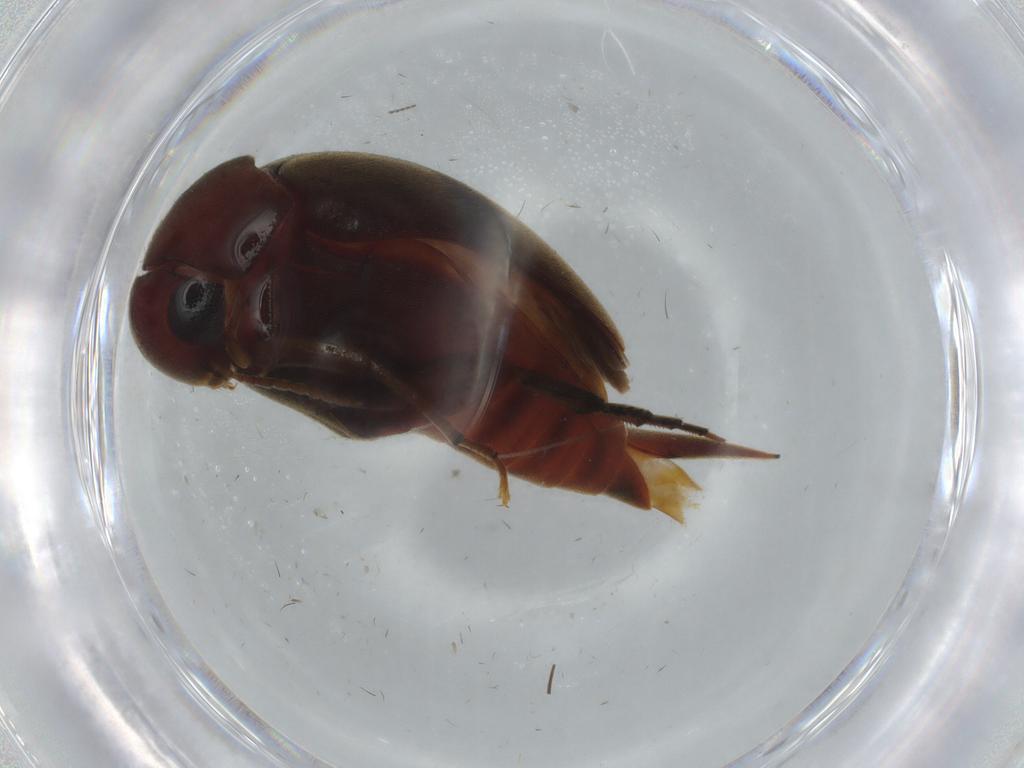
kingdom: Animalia
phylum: Arthropoda
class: Insecta
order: Coleoptera
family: Mordellidae
